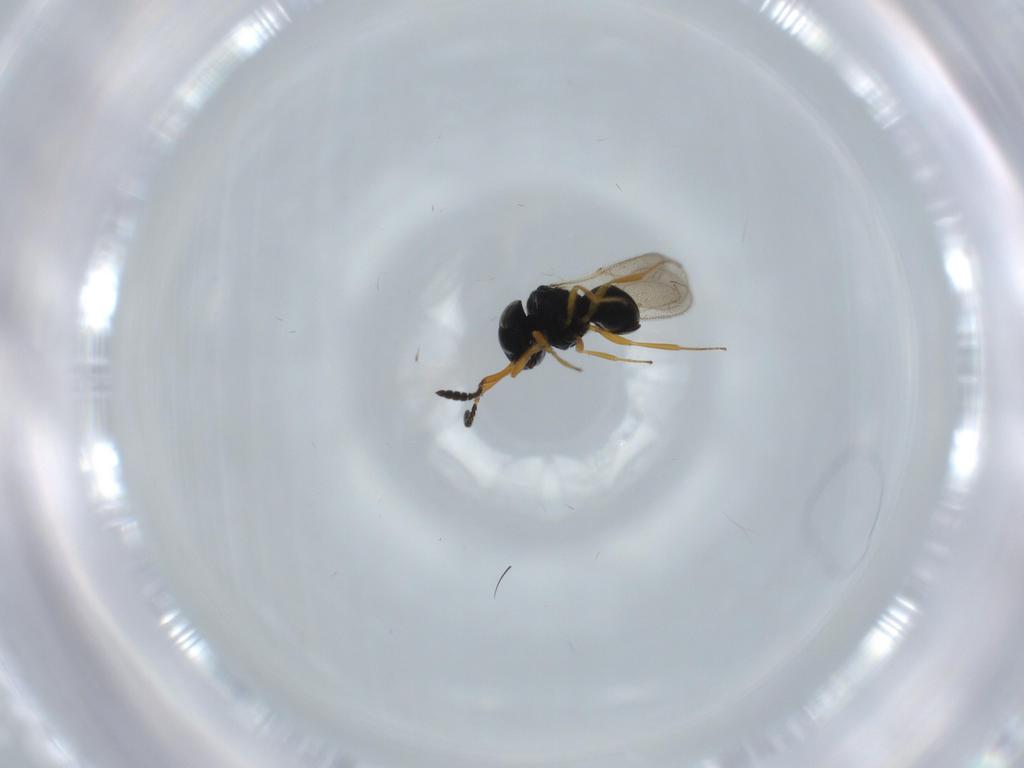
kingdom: Animalia
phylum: Arthropoda
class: Insecta
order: Hymenoptera
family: Scelionidae
